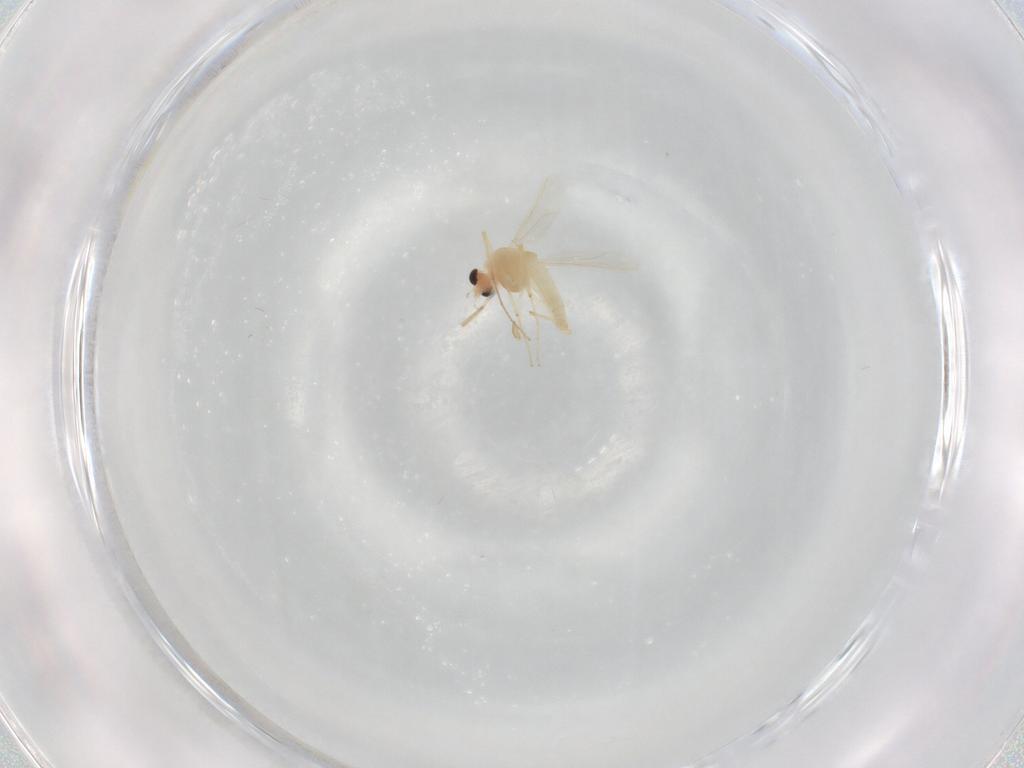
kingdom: Animalia
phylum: Arthropoda
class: Insecta
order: Diptera
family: Chironomidae
